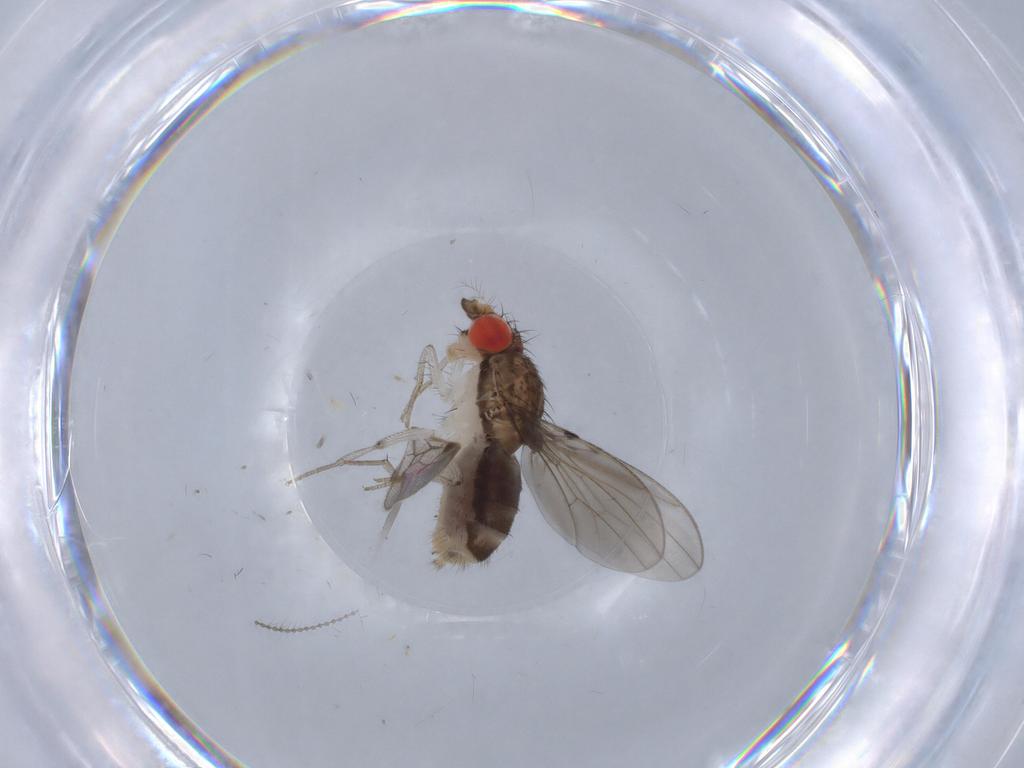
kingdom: Animalia
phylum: Arthropoda
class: Insecta
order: Diptera
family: Drosophilidae
